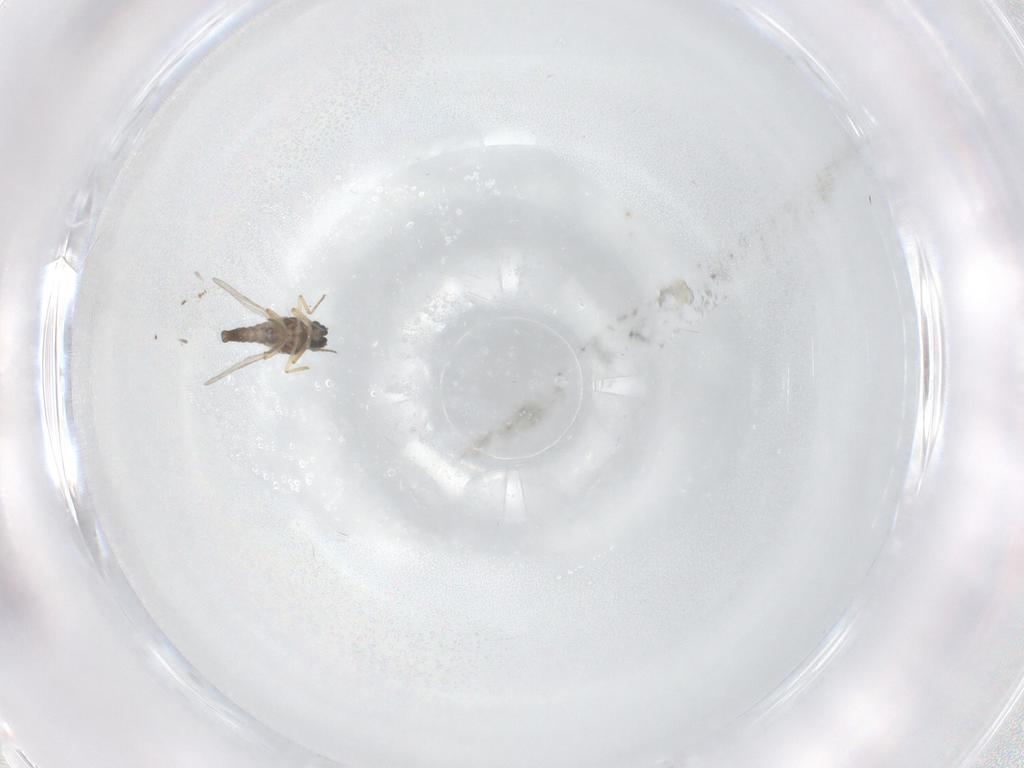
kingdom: Animalia
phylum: Arthropoda
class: Insecta
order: Diptera
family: Ceratopogonidae
